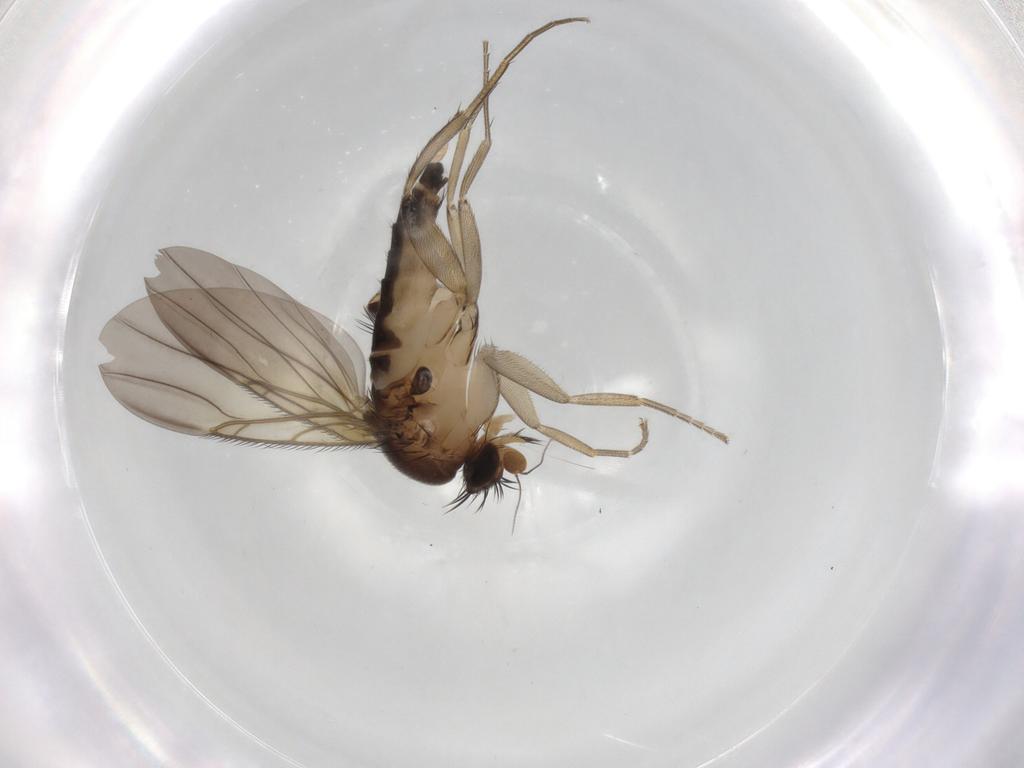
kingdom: Animalia
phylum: Arthropoda
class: Insecta
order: Diptera
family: Phoridae
